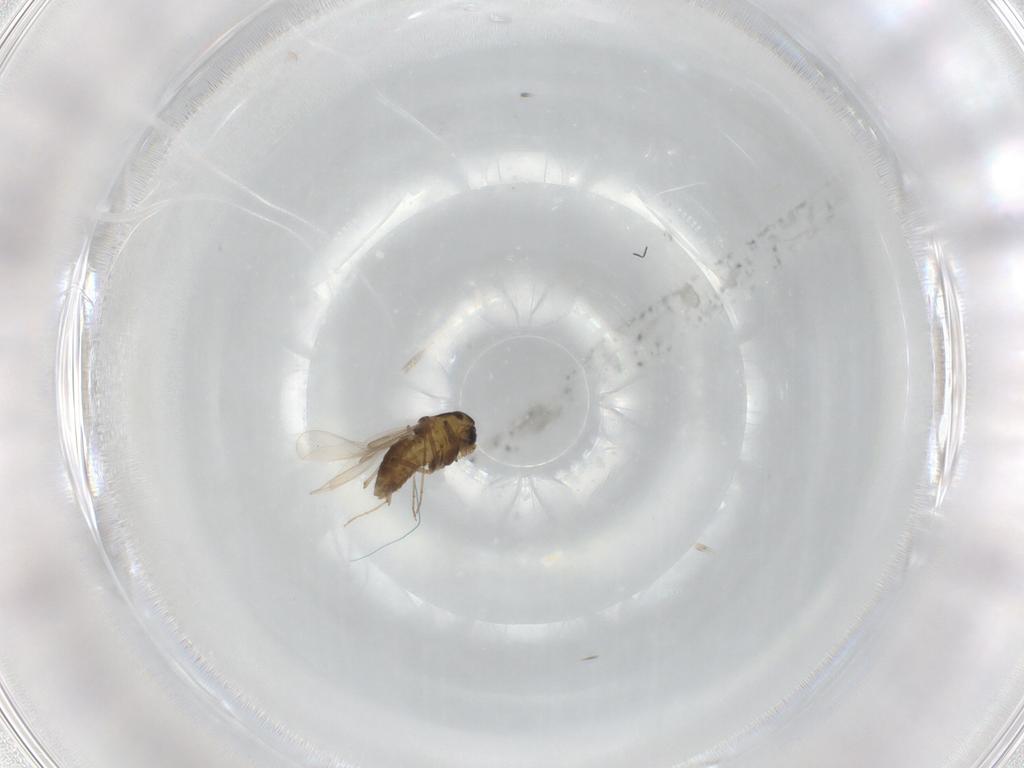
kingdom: Animalia
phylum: Arthropoda
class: Insecta
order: Diptera
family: Chironomidae
